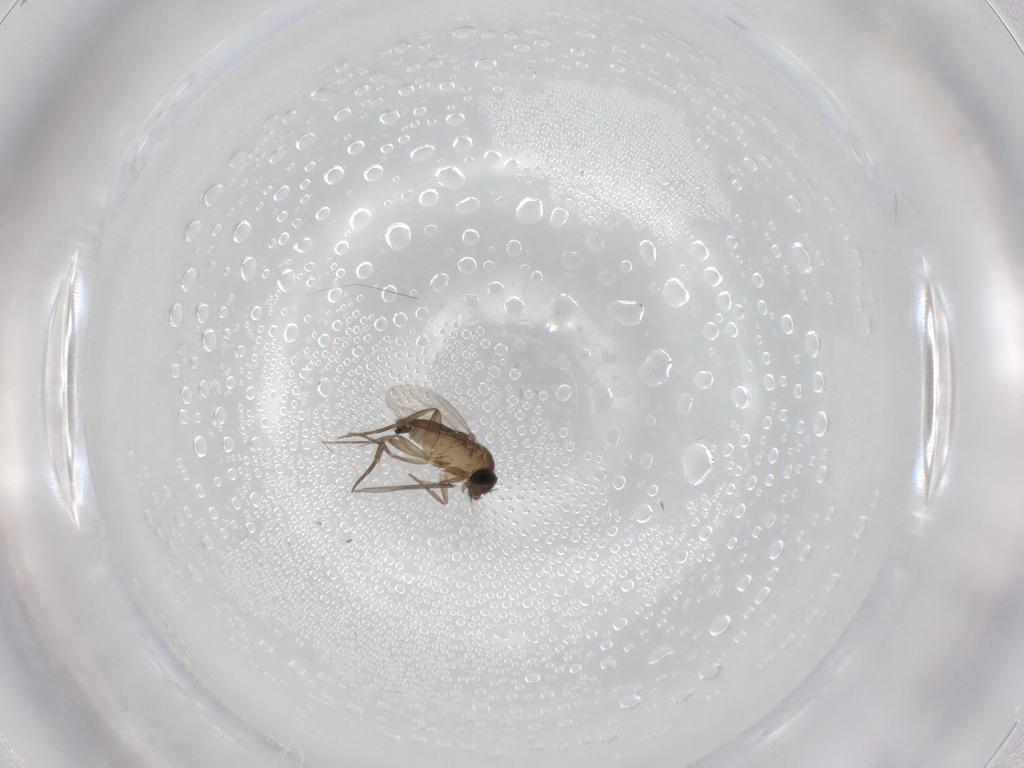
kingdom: Animalia
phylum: Arthropoda
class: Insecta
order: Diptera
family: Phoridae
